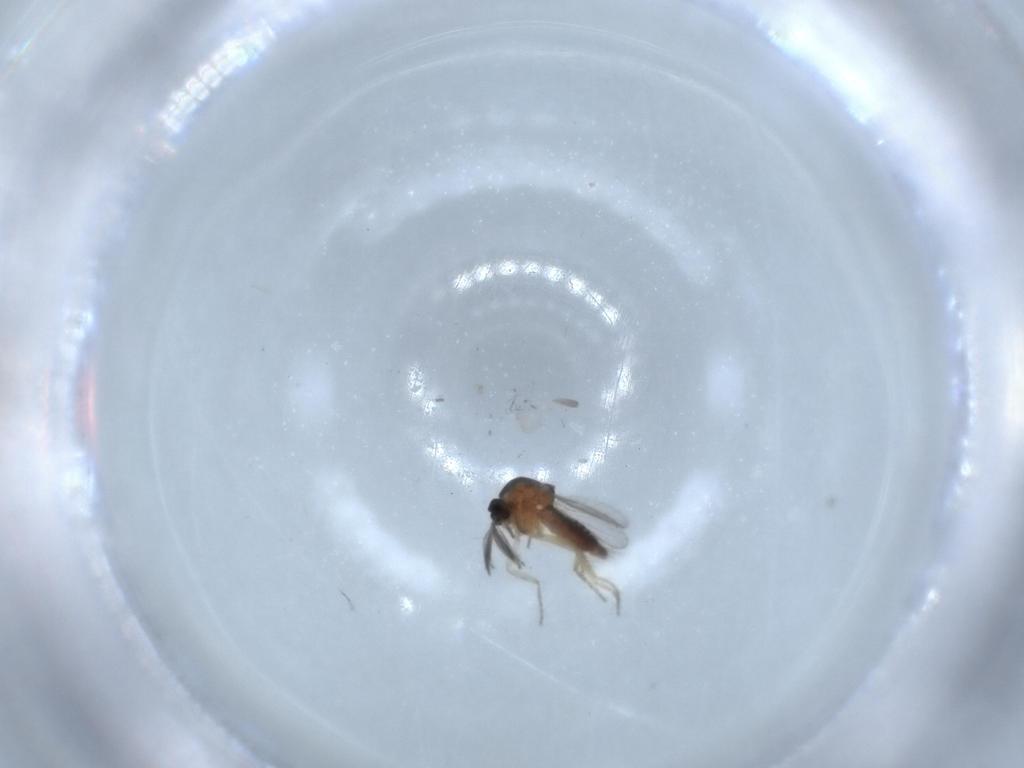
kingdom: Animalia
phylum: Arthropoda
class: Insecta
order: Diptera
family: Ceratopogonidae
